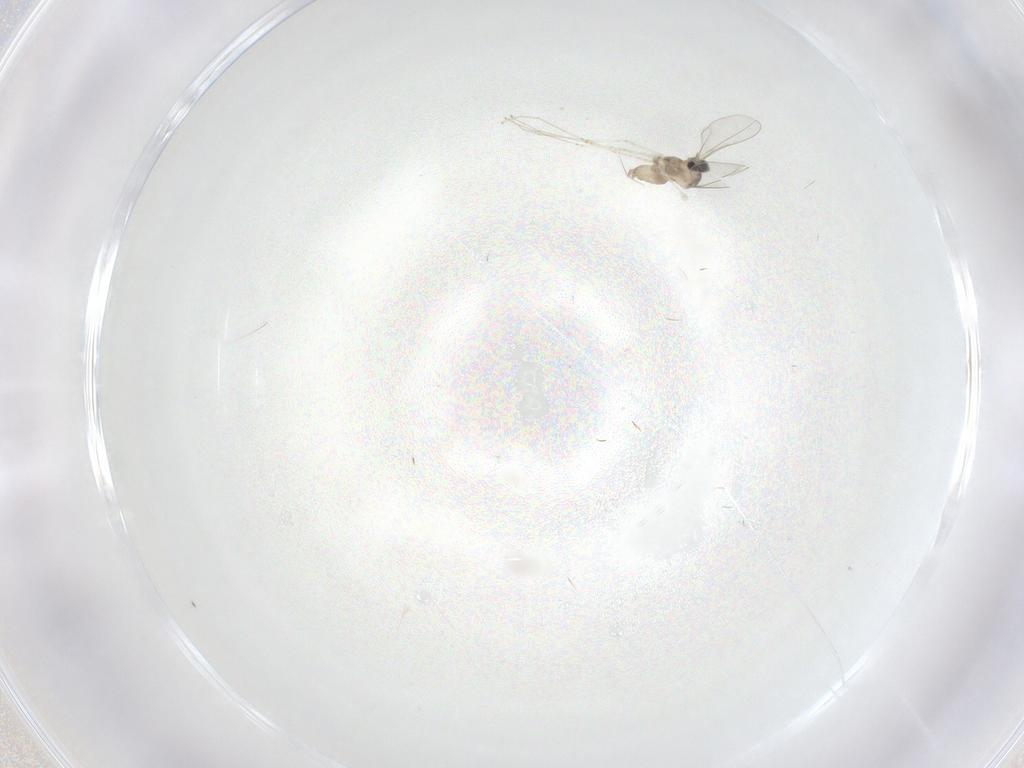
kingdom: Animalia
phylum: Arthropoda
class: Insecta
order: Diptera
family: Cecidomyiidae
